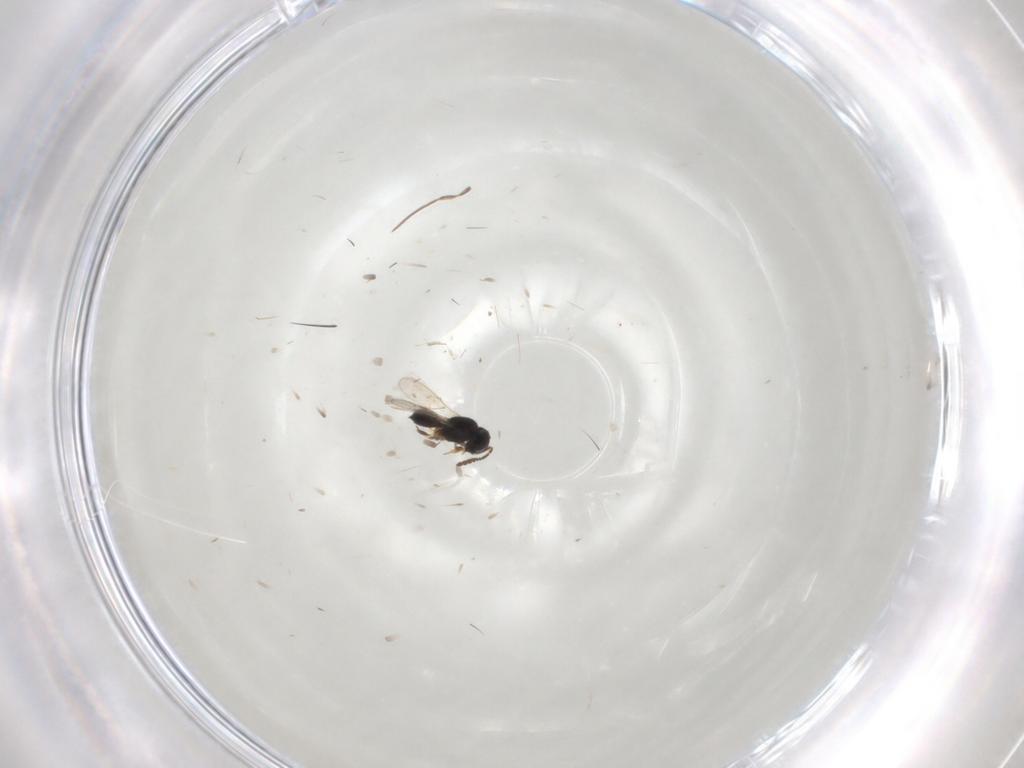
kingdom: Animalia
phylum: Arthropoda
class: Insecta
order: Hymenoptera
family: Scelionidae
